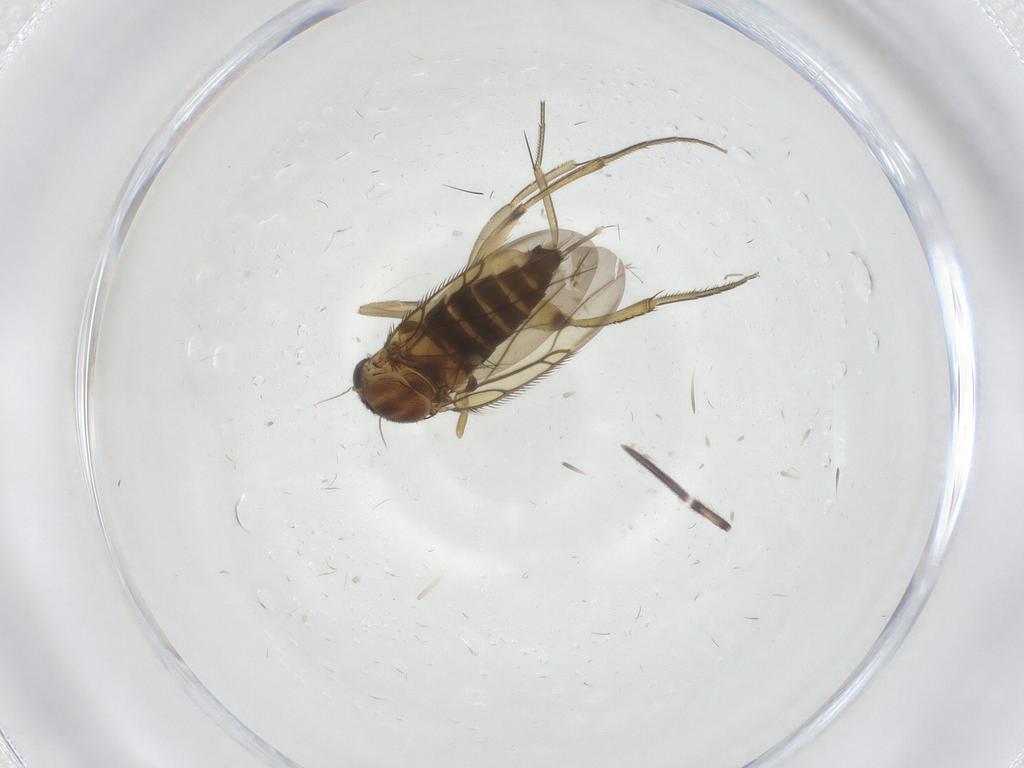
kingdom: Animalia
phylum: Arthropoda
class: Insecta
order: Diptera
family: Phoridae
